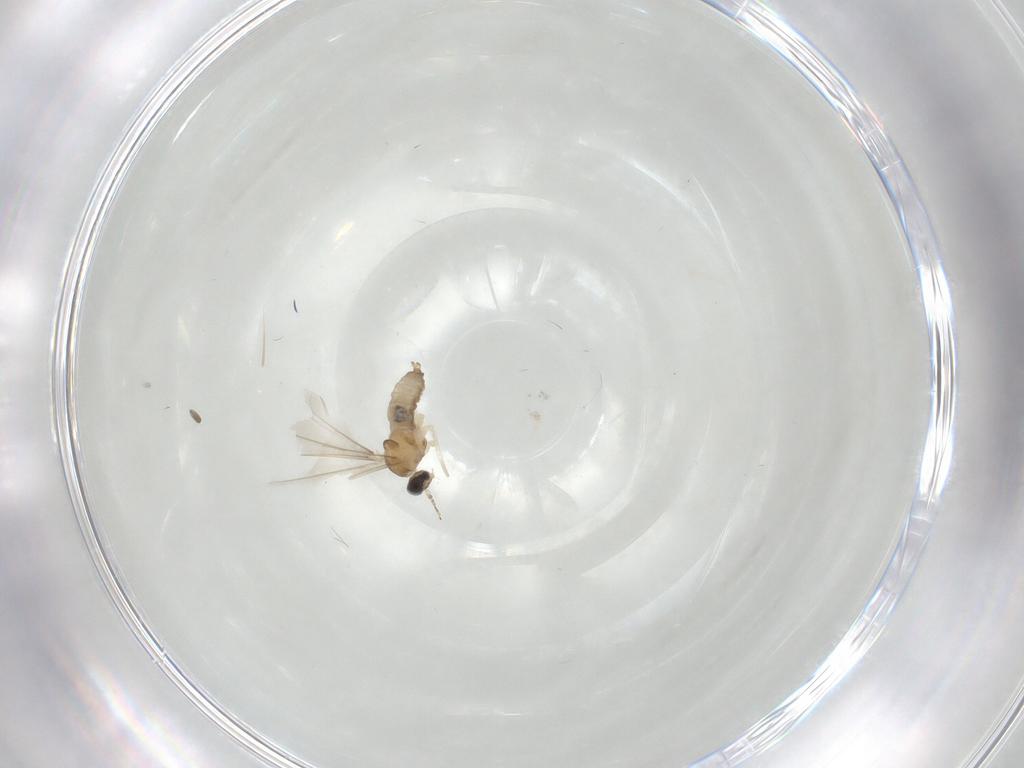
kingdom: Animalia
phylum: Arthropoda
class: Insecta
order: Diptera
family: Cecidomyiidae
